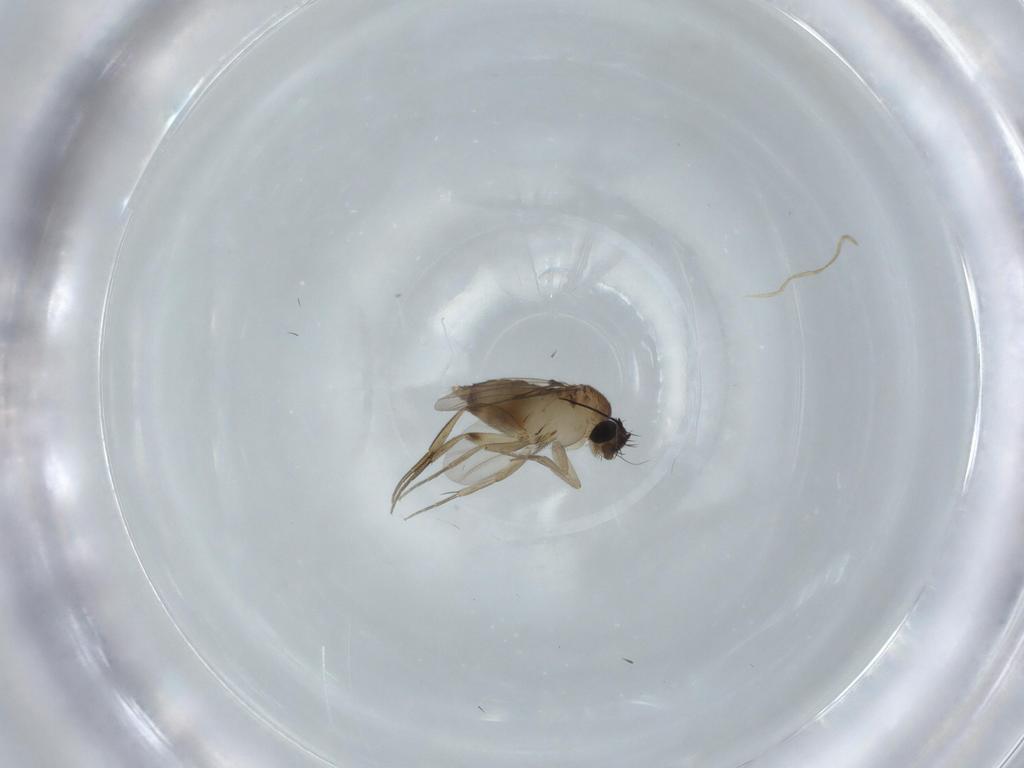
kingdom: Animalia
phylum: Arthropoda
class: Insecta
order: Diptera
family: Phoridae
